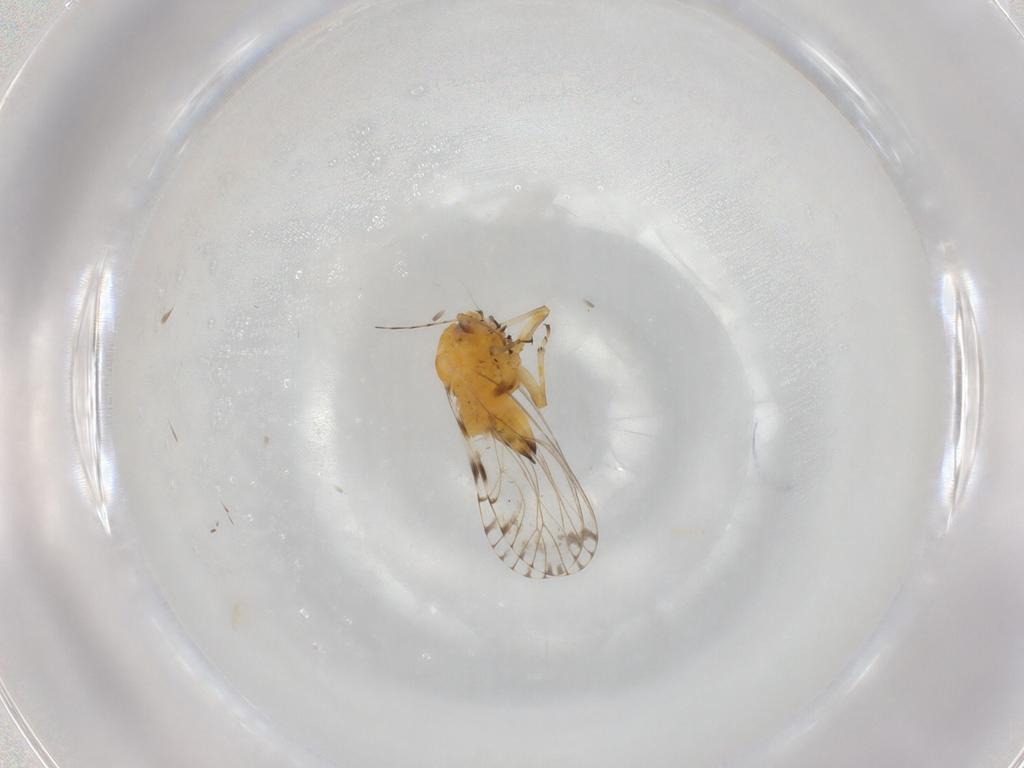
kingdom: Animalia
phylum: Arthropoda
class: Insecta
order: Hemiptera
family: Psyllidae
